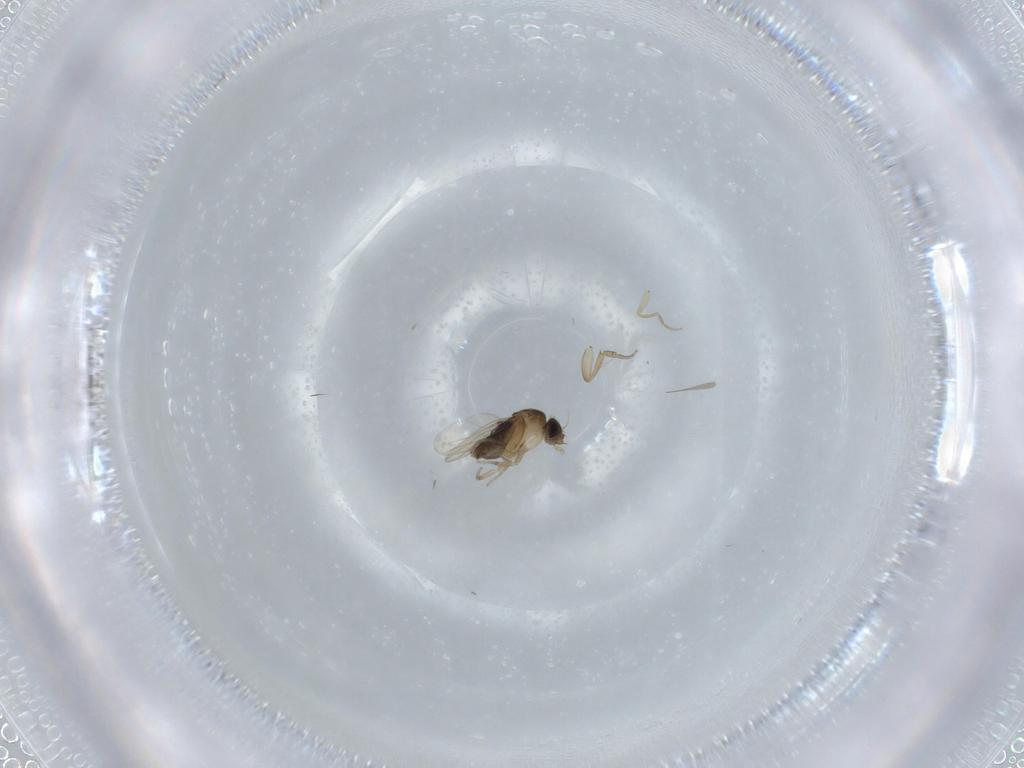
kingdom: Animalia
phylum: Arthropoda
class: Insecta
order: Diptera
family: Phoridae
